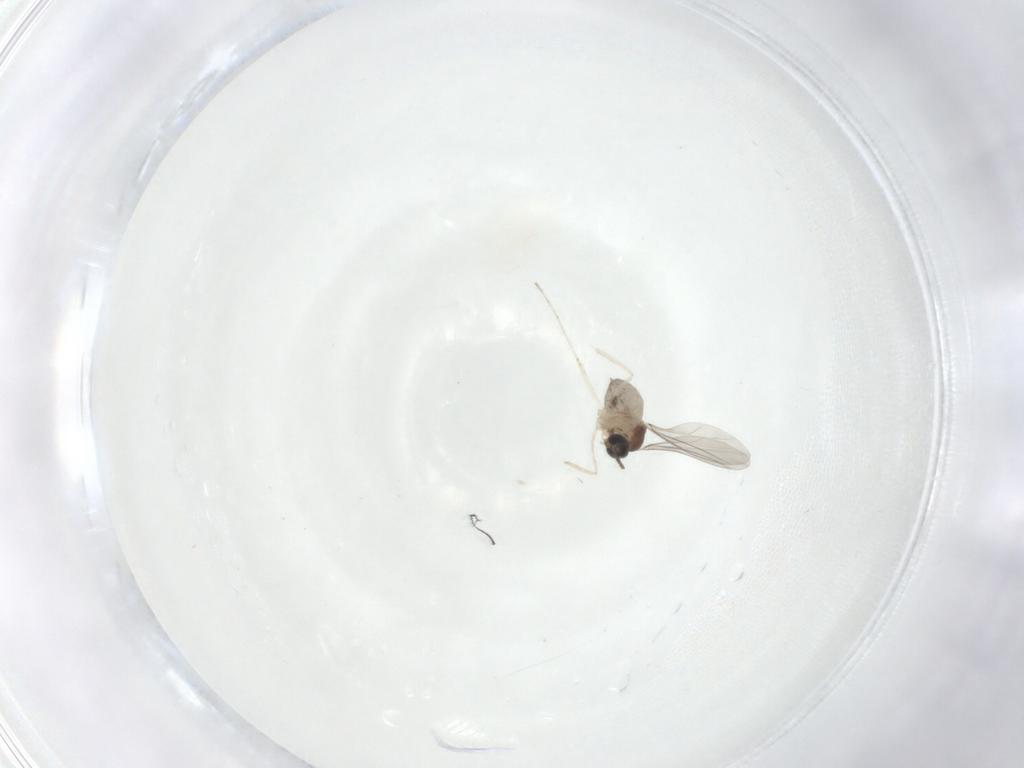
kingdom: Animalia
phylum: Arthropoda
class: Insecta
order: Diptera
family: Cecidomyiidae
